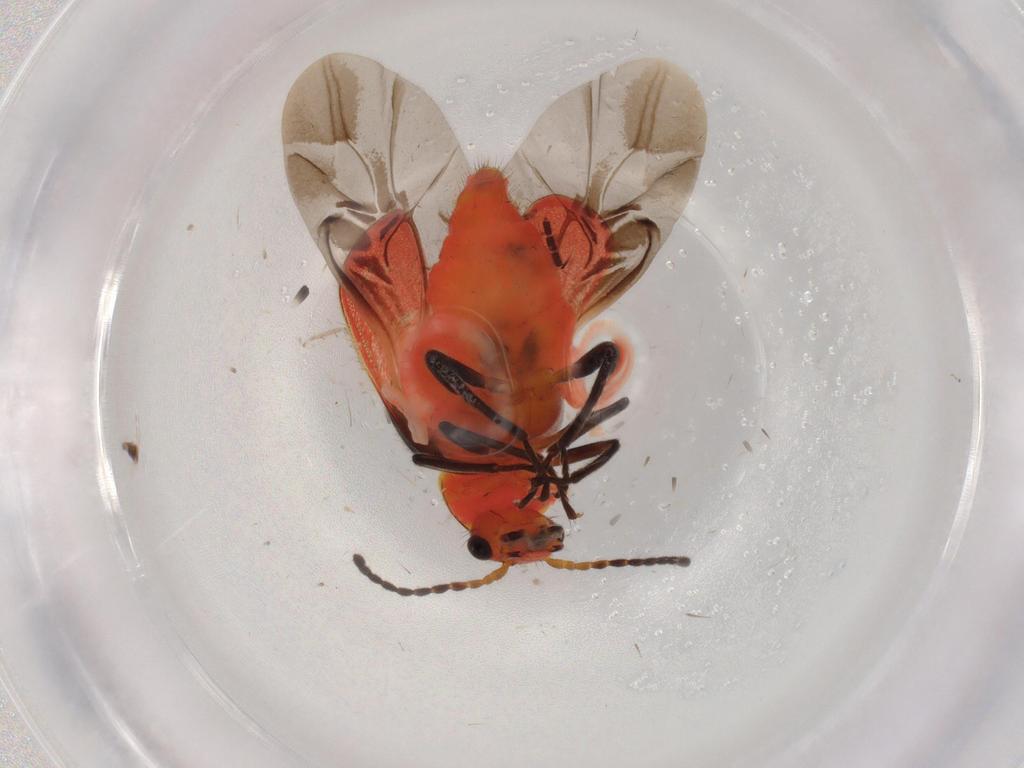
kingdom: Animalia
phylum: Arthropoda
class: Insecta
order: Coleoptera
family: Melyridae
